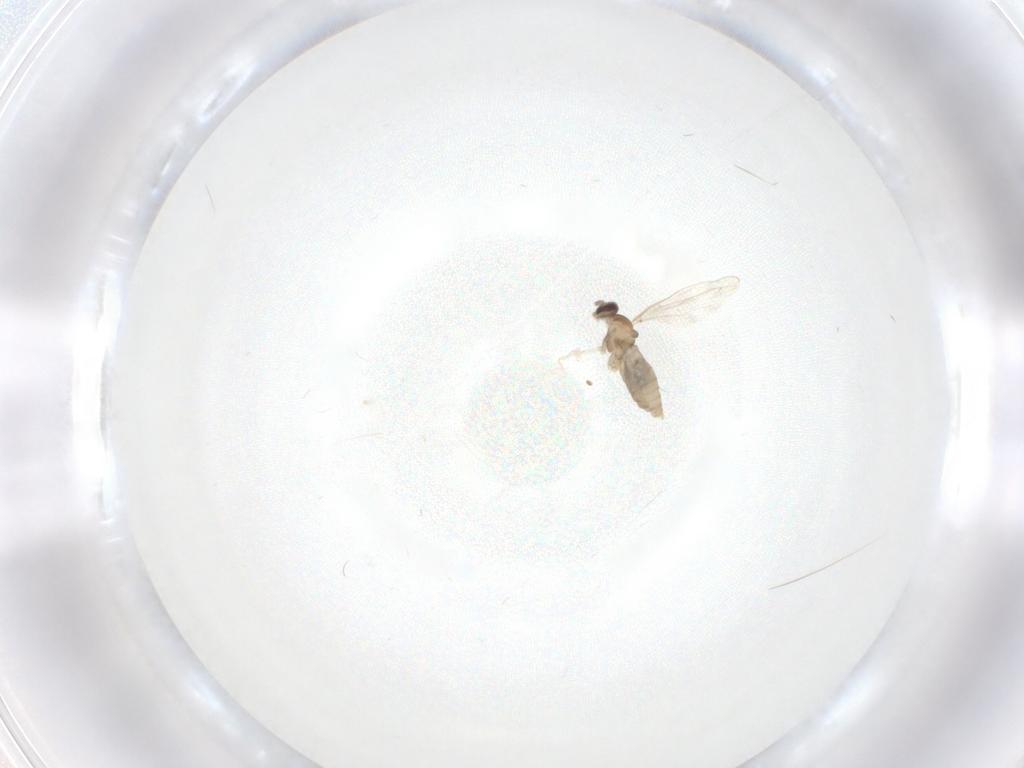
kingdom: Animalia
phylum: Arthropoda
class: Insecta
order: Diptera
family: Cecidomyiidae
